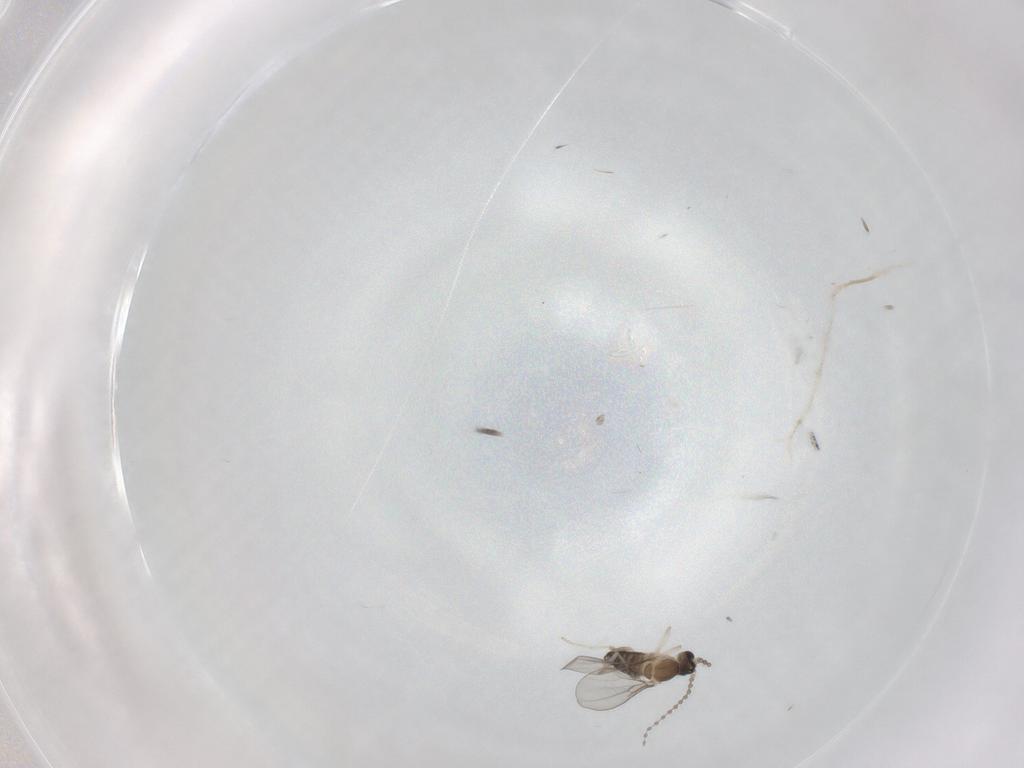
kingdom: Animalia
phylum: Arthropoda
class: Insecta
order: Diptera
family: Cecidomyiidae
